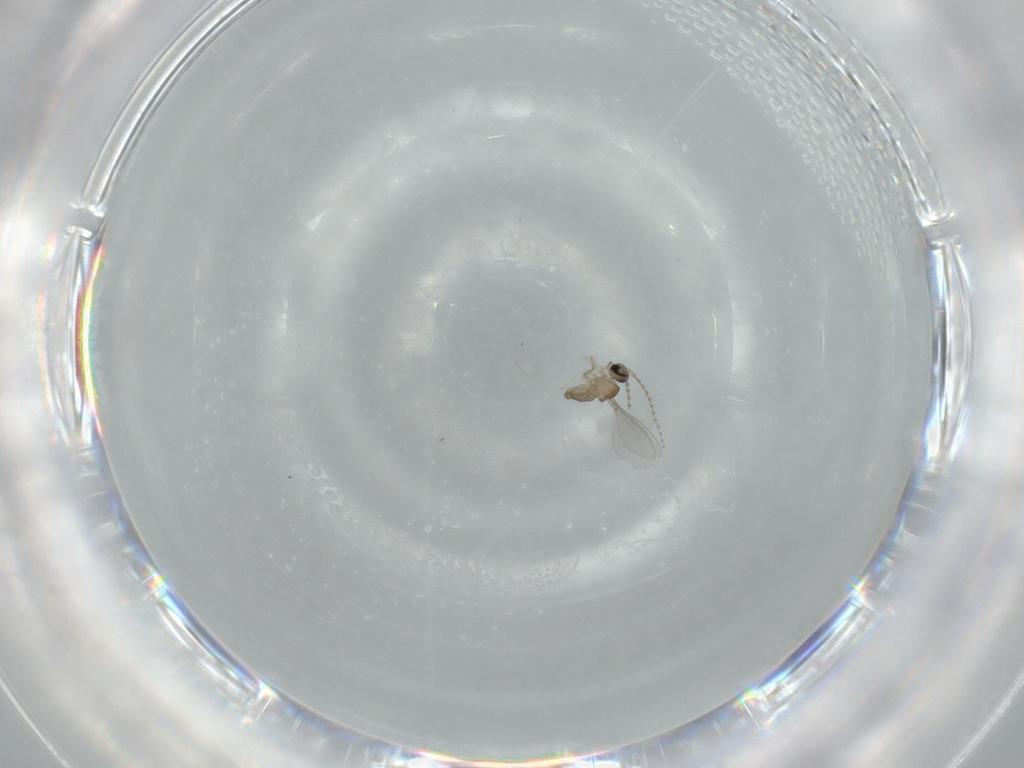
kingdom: Animalia
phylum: Arthropoda
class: Insecta
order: Diptera
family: Cecidomyiidae
